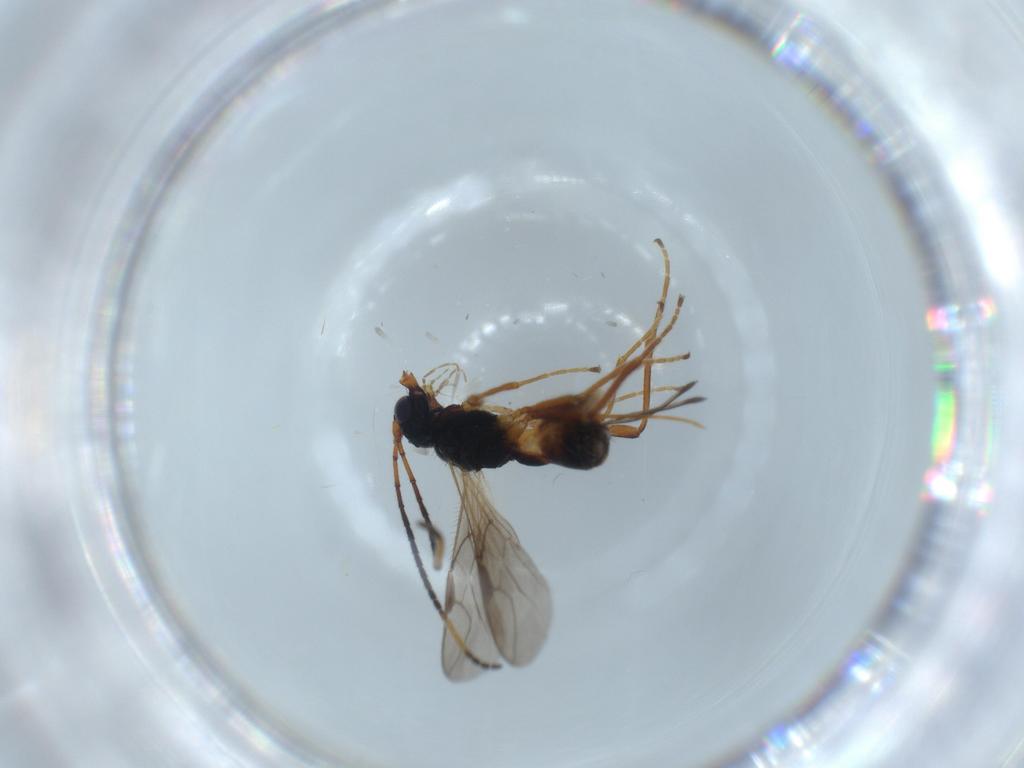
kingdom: Animalia
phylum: Arthropoda
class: Insecta
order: Hymenoptera
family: Braconidae
